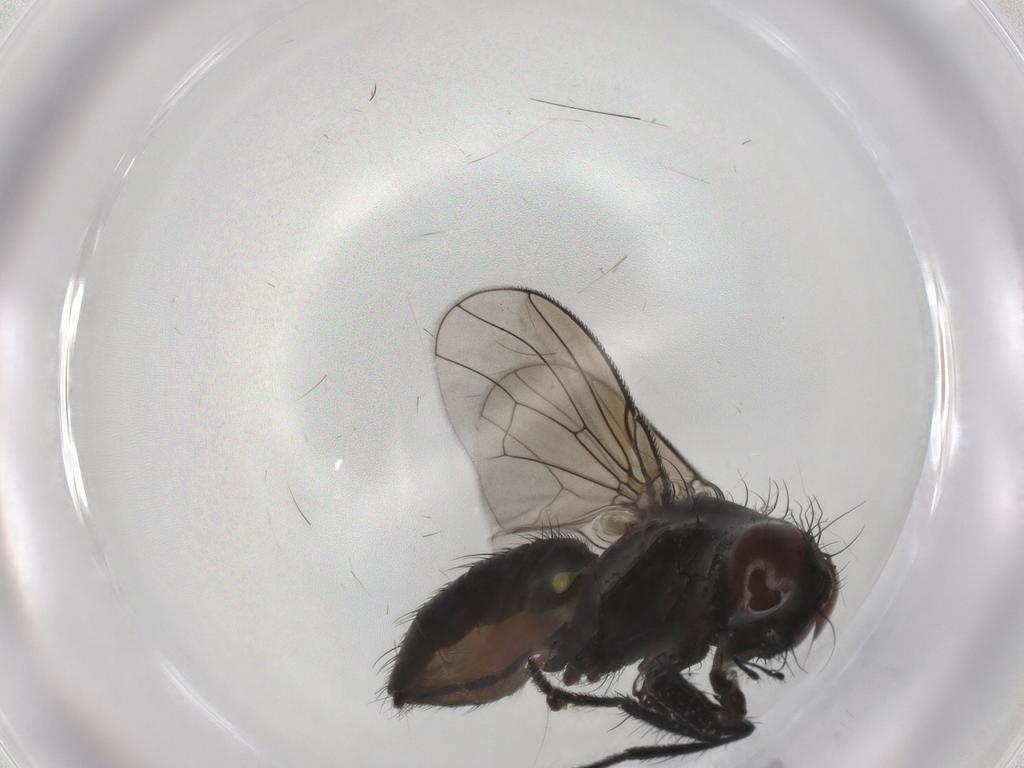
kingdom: Animalia
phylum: Arthropoda
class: Insecta
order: Diptera
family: Muscidae
